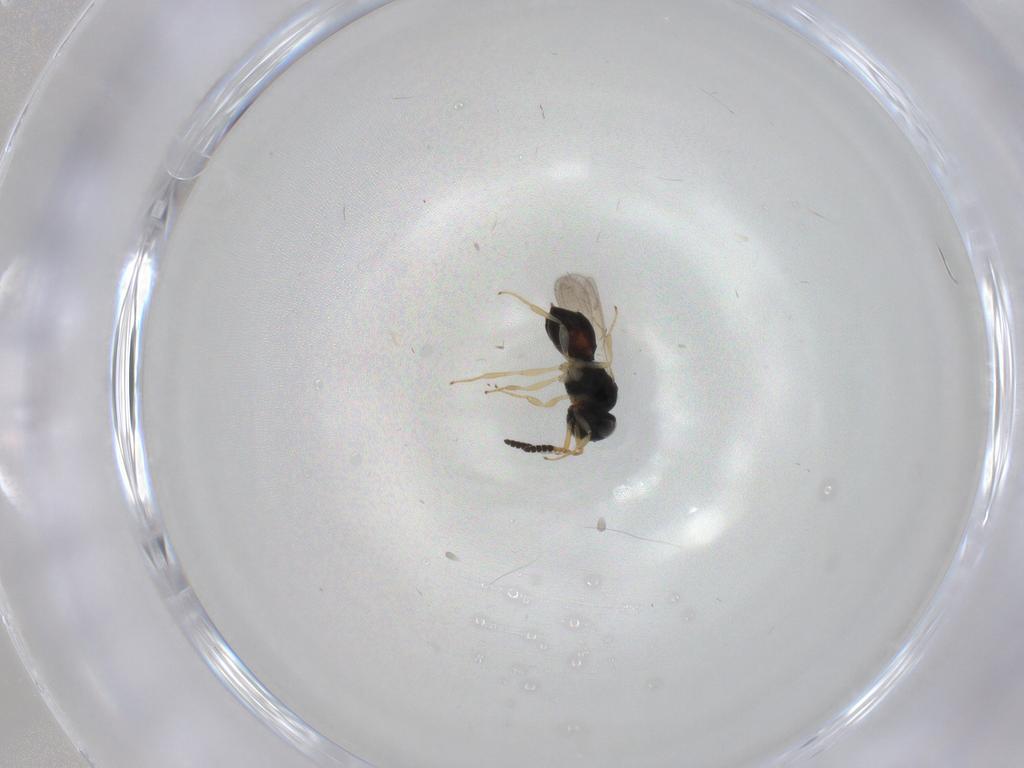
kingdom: Animalia
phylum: Arthropoda
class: Insecta
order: Hymenoptera
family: Scelionidae
